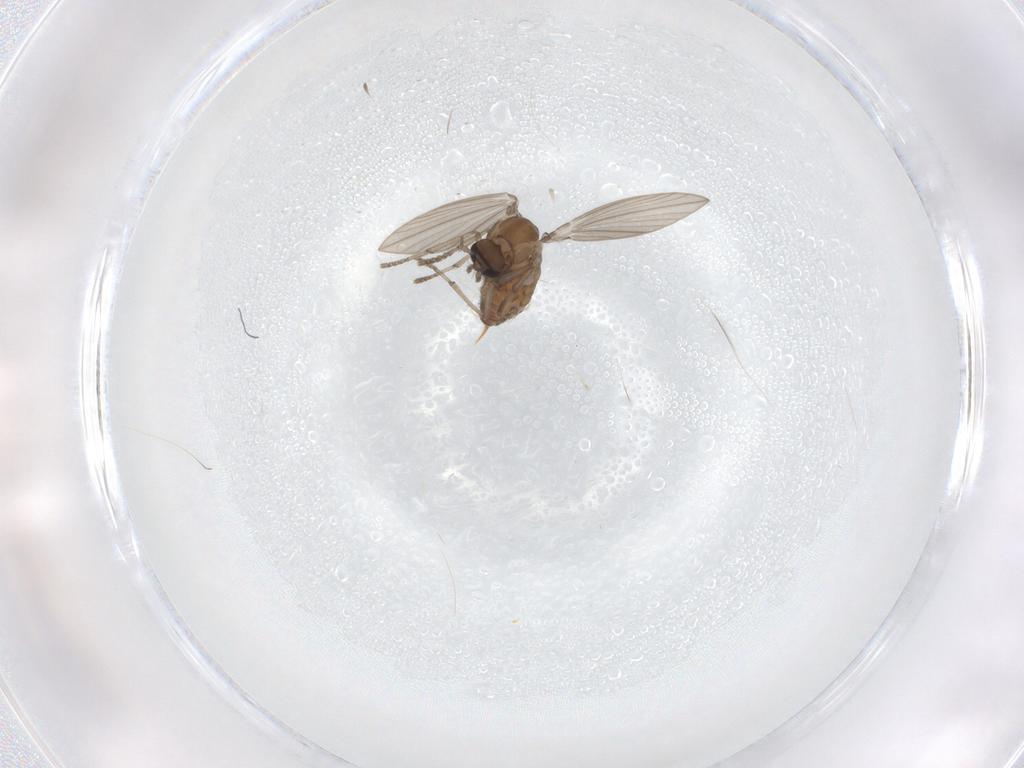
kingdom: Animalia
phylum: Arthropoda
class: Insecta
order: Diptera
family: Psychodidae
